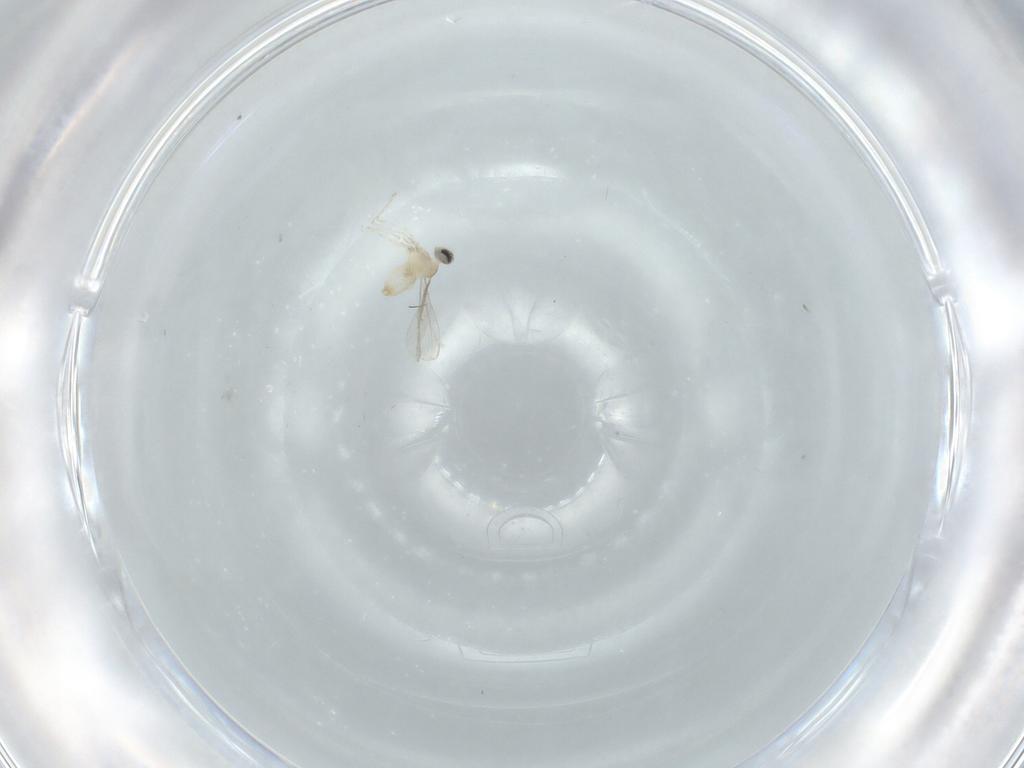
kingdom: Animalia
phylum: Arthropoda
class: Insecta
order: Diptera
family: Cecidomyiidae
